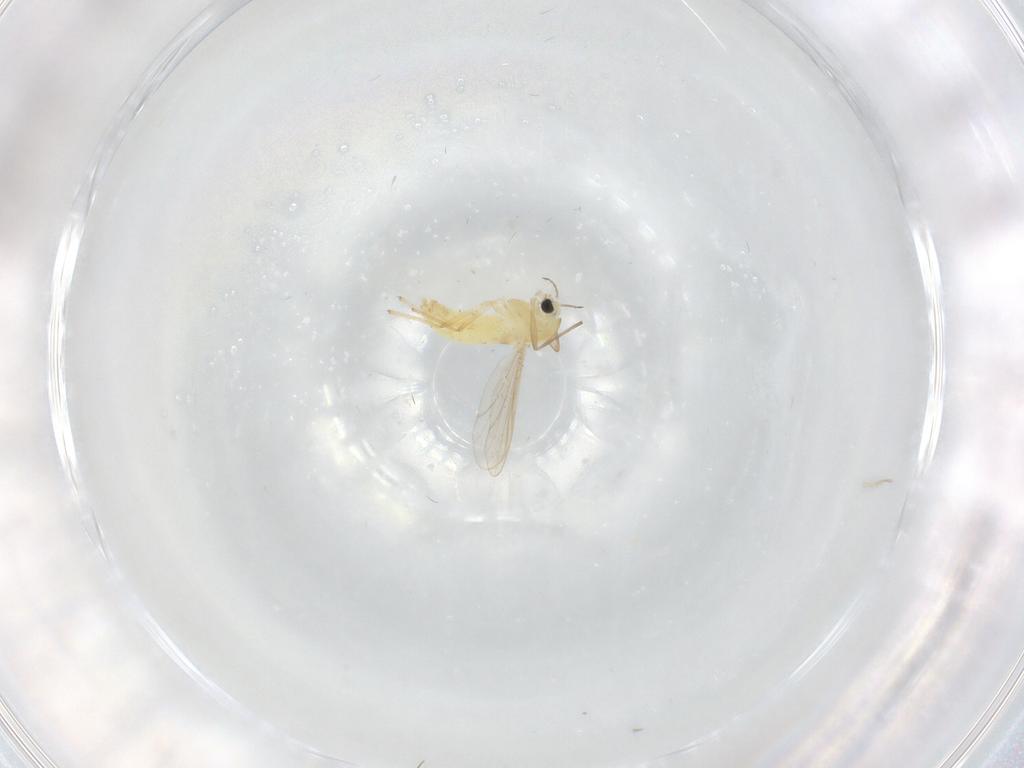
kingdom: Animalia
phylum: Arthropoda
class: Insecta
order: Diptera
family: Chironomidae
